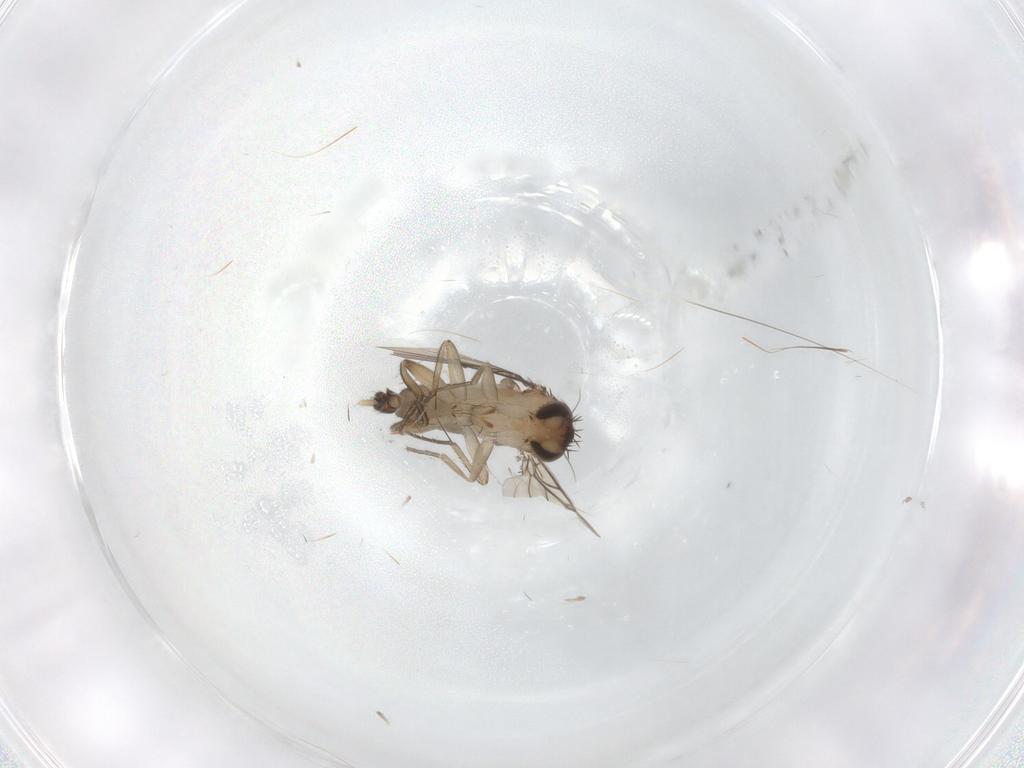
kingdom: Animalia
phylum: Arthropoda
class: Insecta
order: Diptera
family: Phoridae
